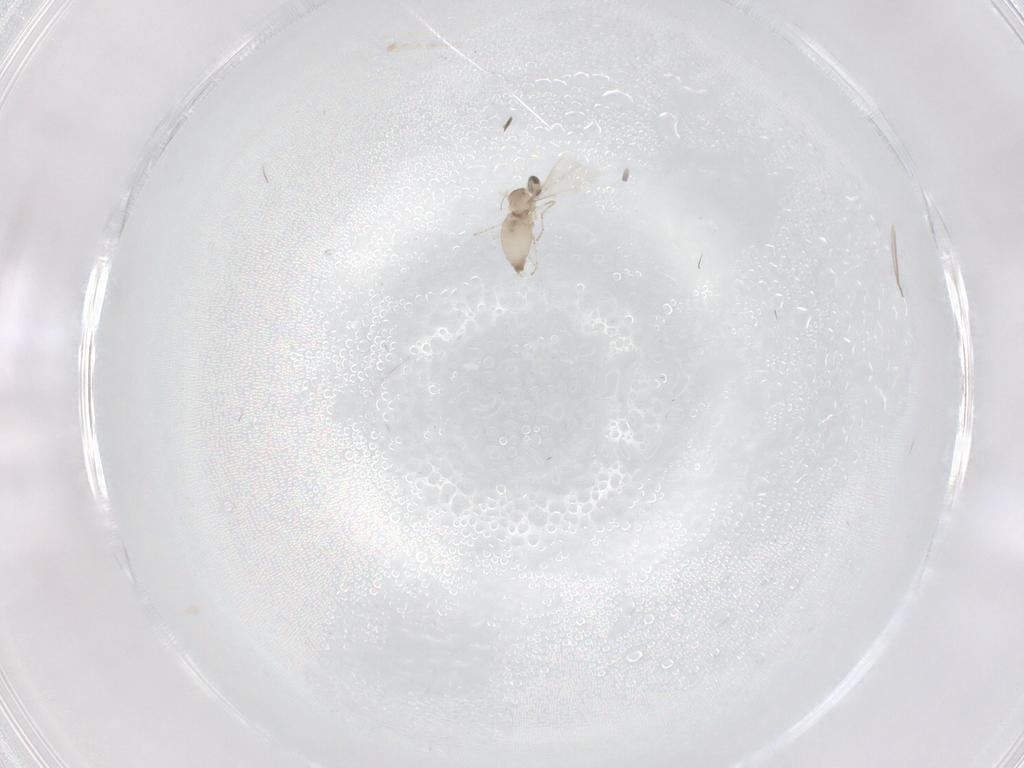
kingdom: Animalia
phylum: Arthropoda
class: Insecta
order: Diptera
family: Cecidomyiidae
